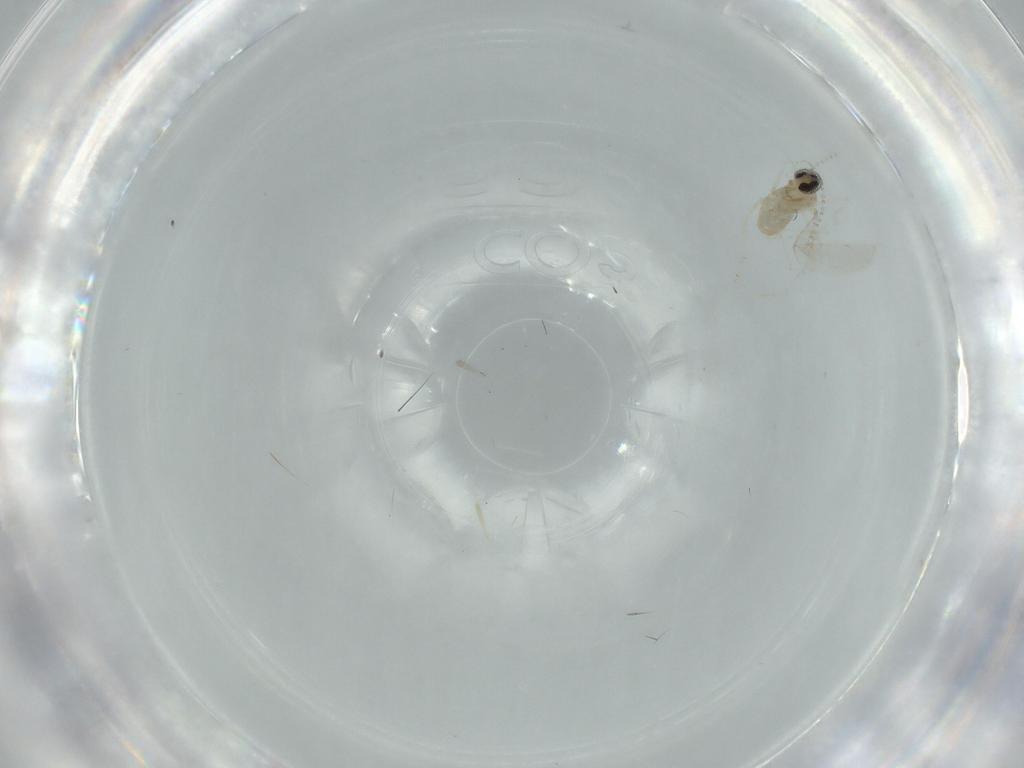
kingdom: Animalia
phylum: Arthropoda
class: Insecta
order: Diptera
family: Cecidomyiidae
